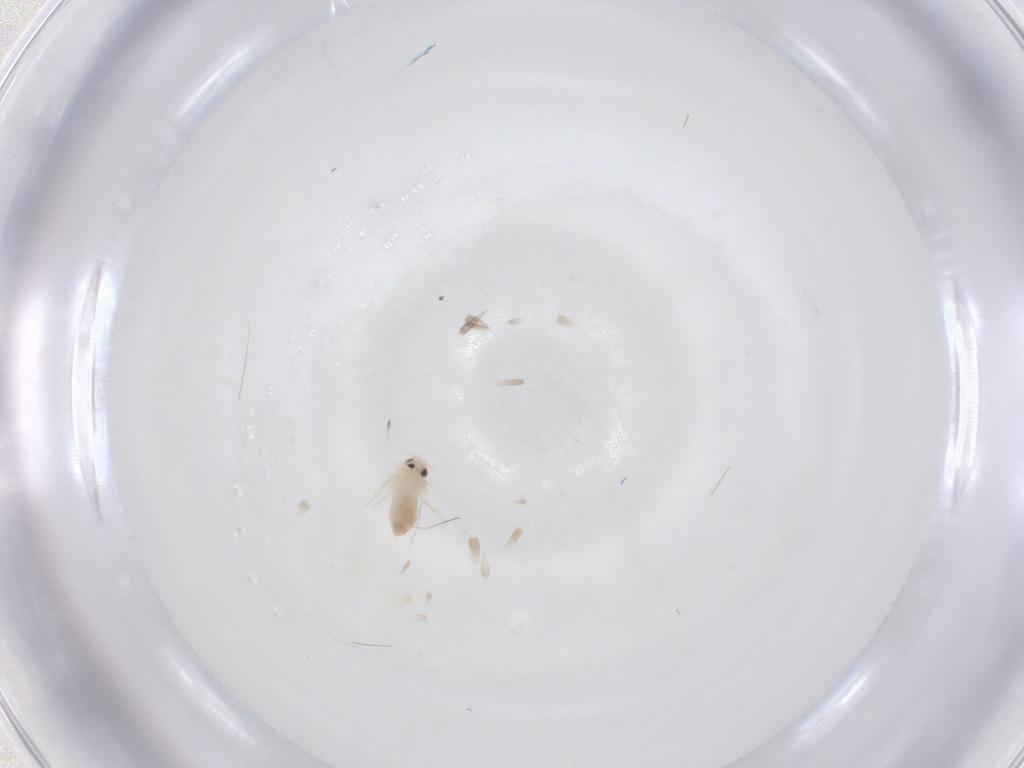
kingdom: Animalia
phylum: Arthropoda
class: Insecta
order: Hemiptera
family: Aleyrodidae
